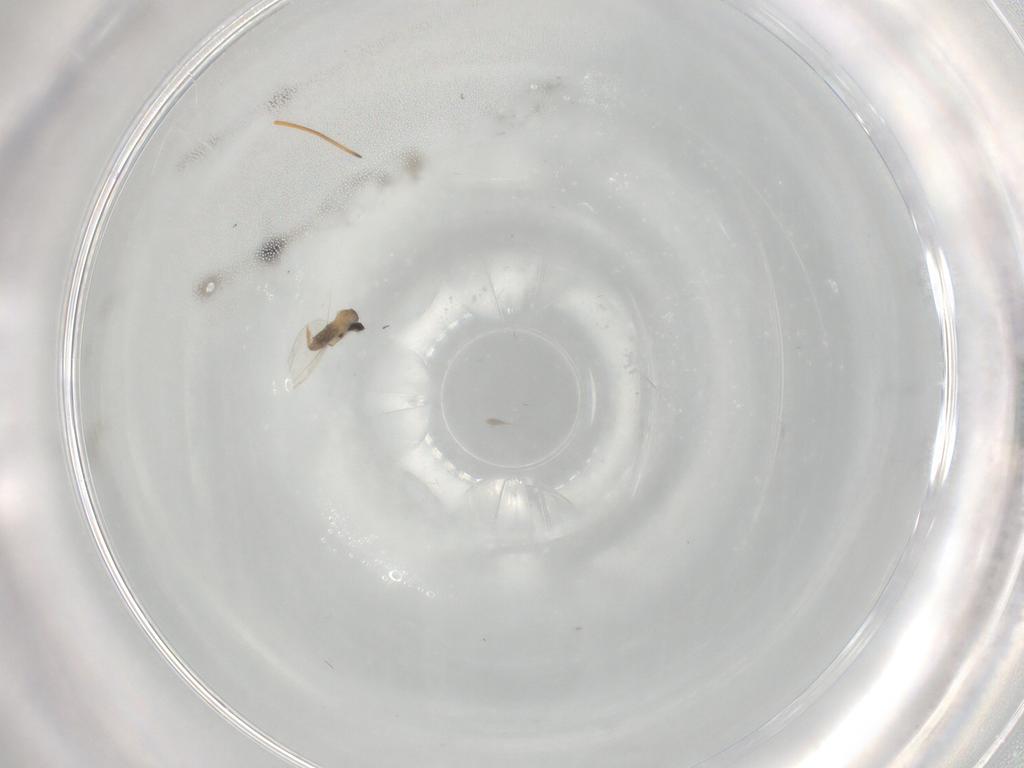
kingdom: Animalia
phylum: Arthropoda
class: Insecta
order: Diptera
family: Cecidomyiidae
